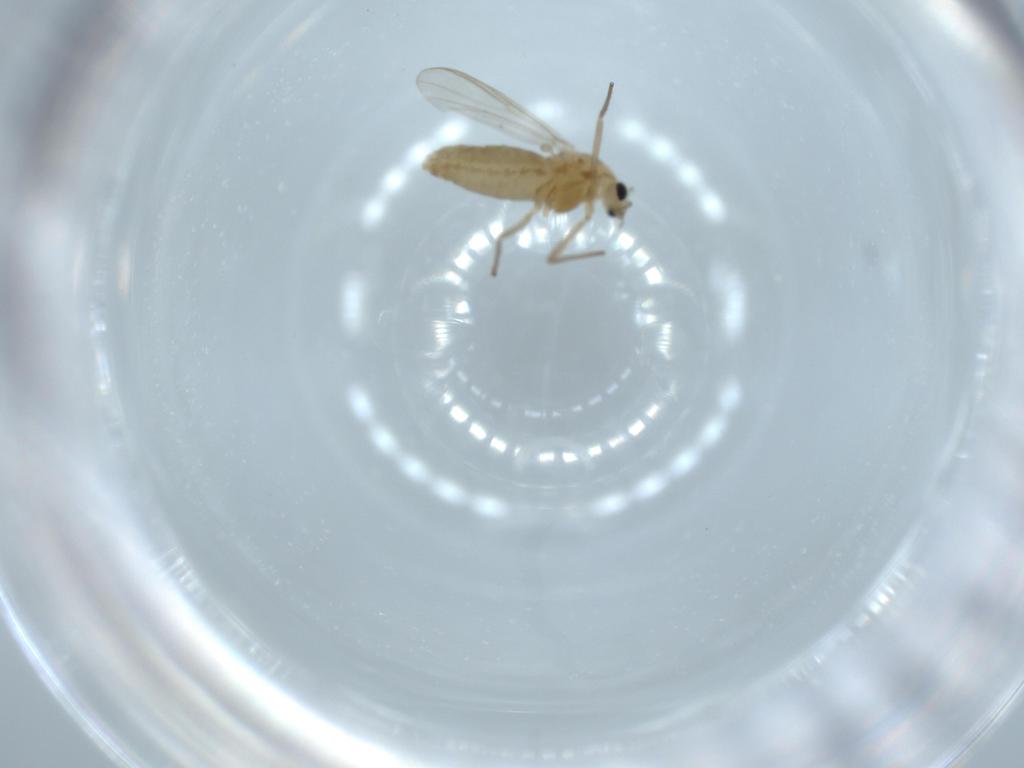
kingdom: Animalia
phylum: Arthropoda
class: Insecta
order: Diptera
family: Chironomidae
